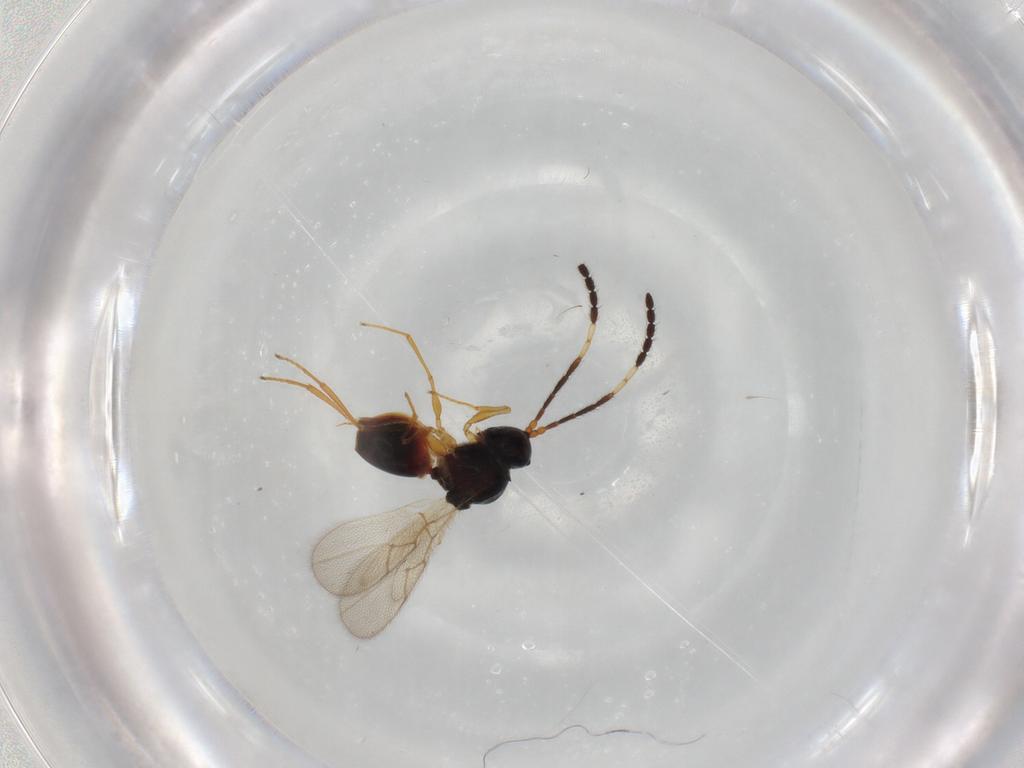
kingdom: Animalia
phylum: Arthropoda
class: Insecta
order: Hymenoptera
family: Figitidae
